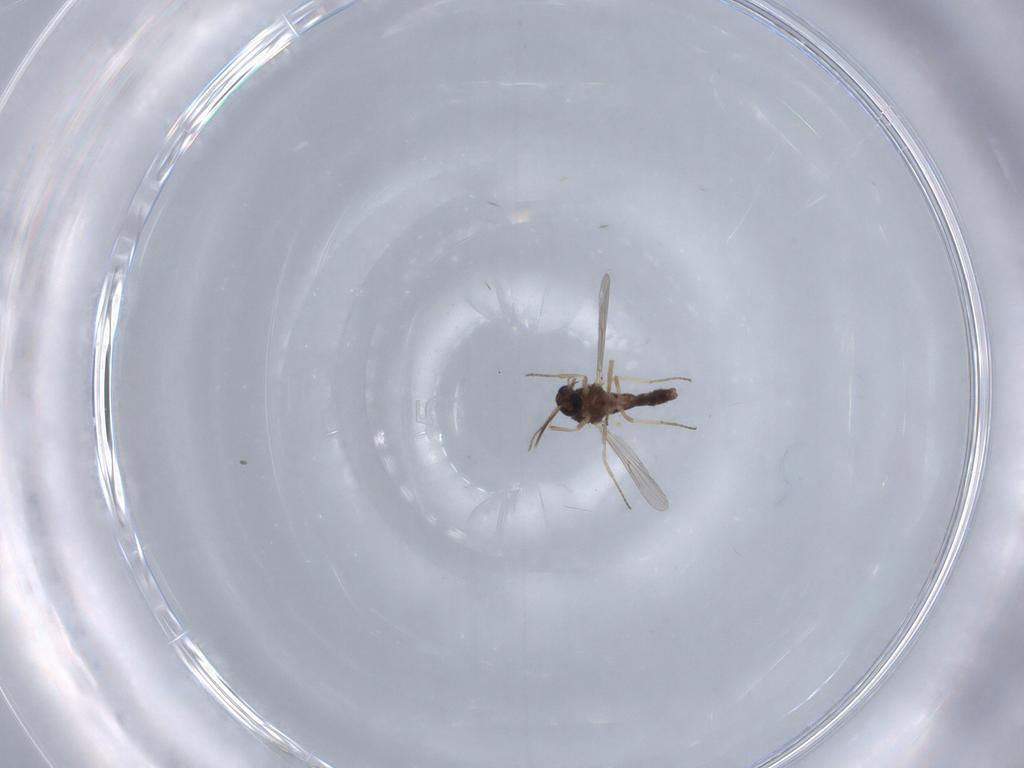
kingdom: Animalia
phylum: Arthropoda
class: Insecta
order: Diptera
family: Ceratopogonidae
